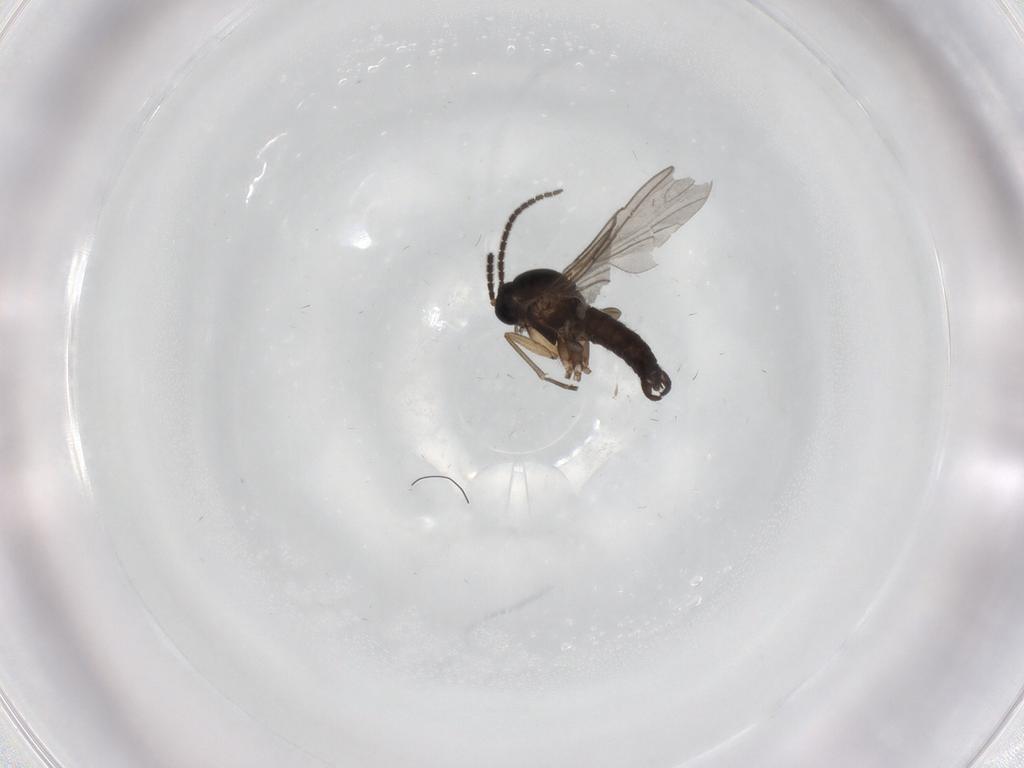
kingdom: Animalia
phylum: Arthropoda
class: Insecta
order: Diptera
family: Sciaridae
